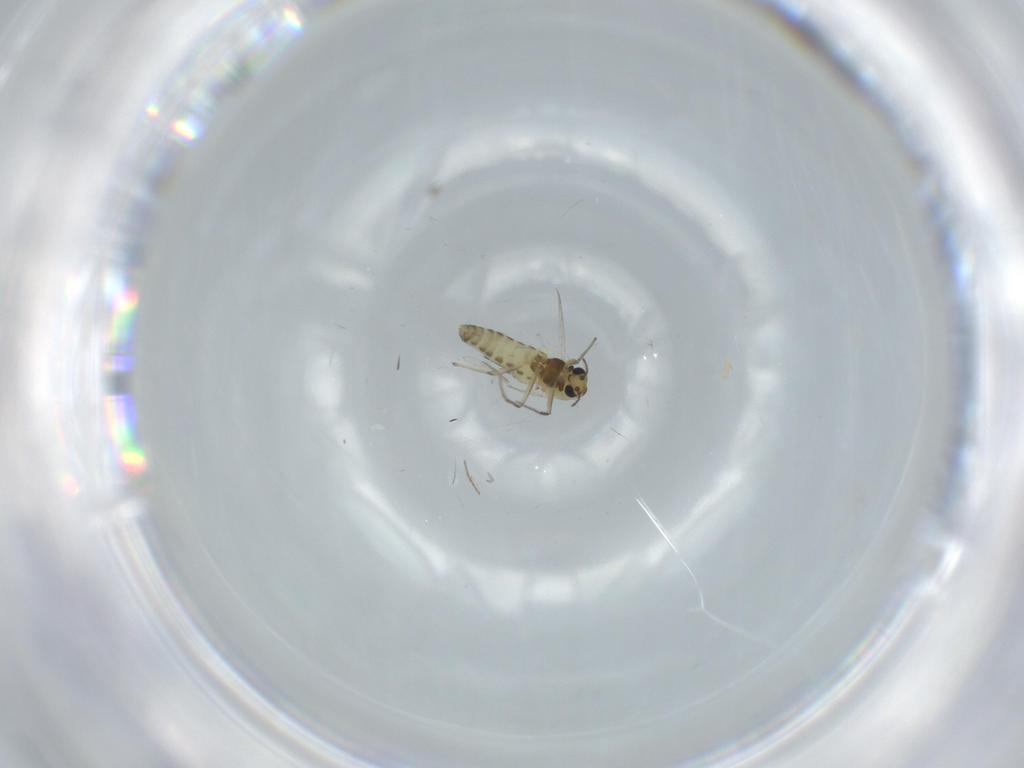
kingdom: Animalia
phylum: Arthropoda
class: Insecta
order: Diptera
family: Chironomidae
